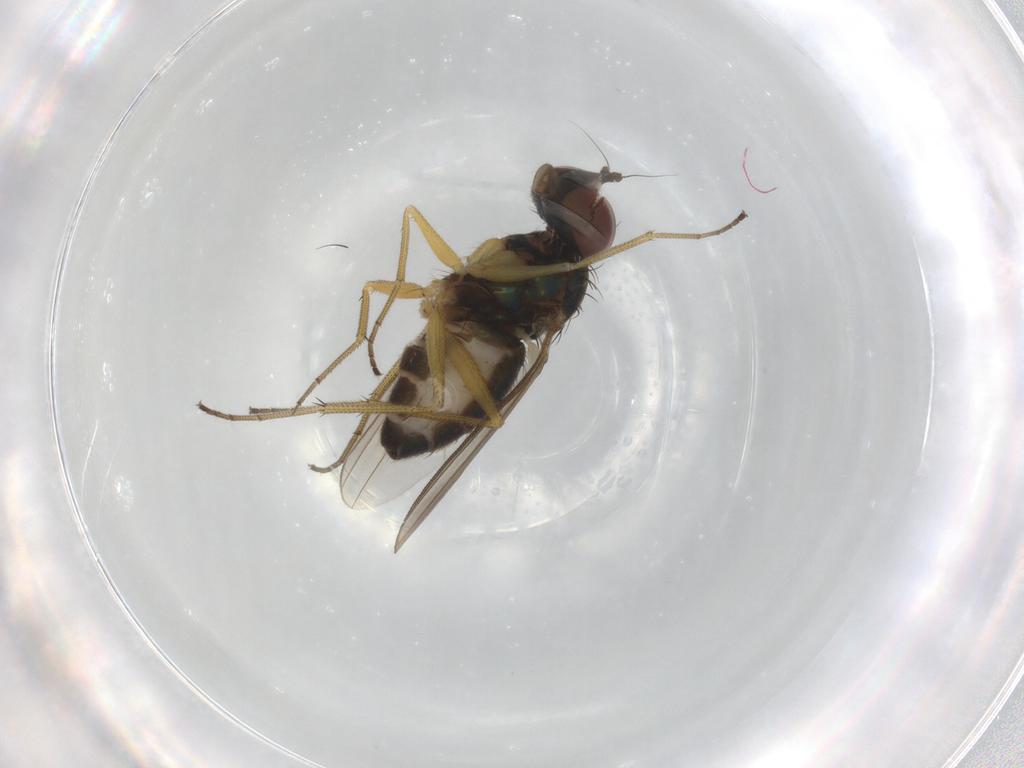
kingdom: Animalia
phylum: Arthropoda
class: Insecta
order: Diptera
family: Dolichopodidae
